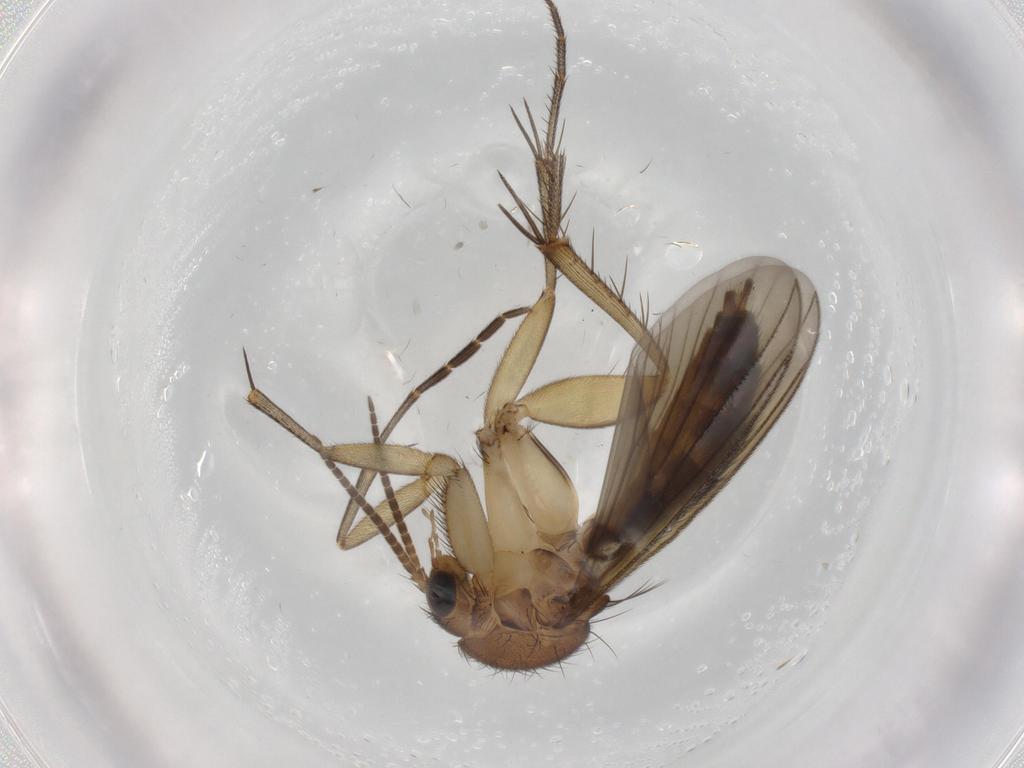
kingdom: Animalia
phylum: Arthropoda
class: Insecta
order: Diptera
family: Mycetophilidae
